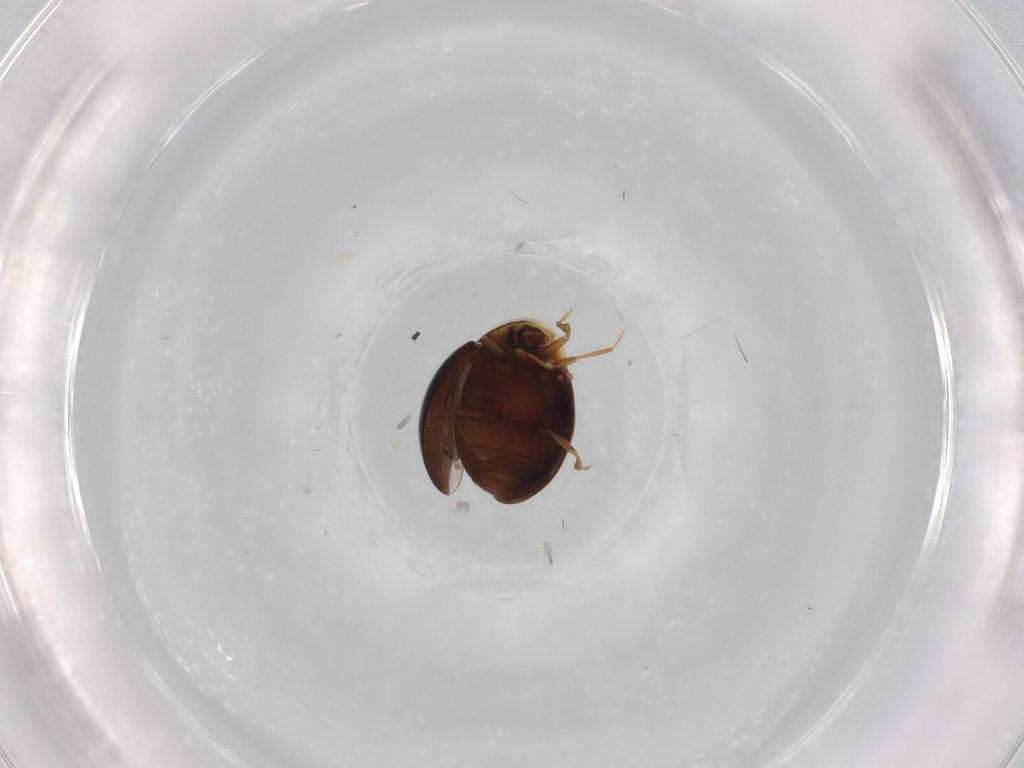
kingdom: Animalia
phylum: Arthropoda
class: Insecta
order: Coleoptera
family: Corylophidae
